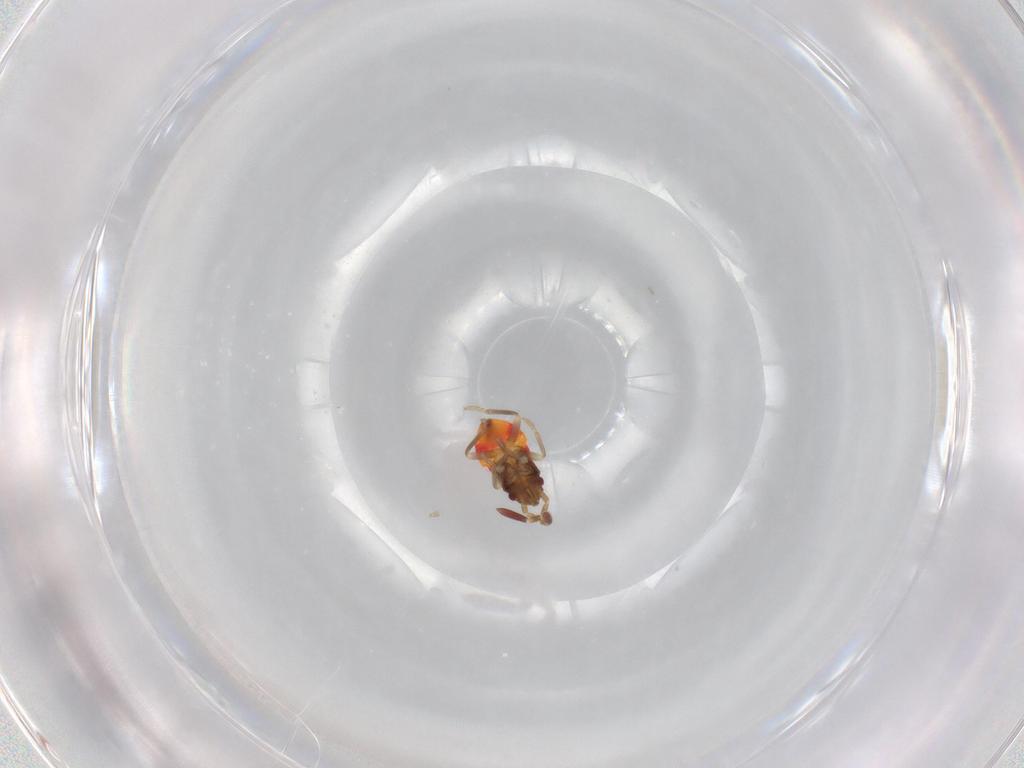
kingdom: Animalia
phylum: Arthropoda
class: Insecta
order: Hemiptera
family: Rhyparochromidae
